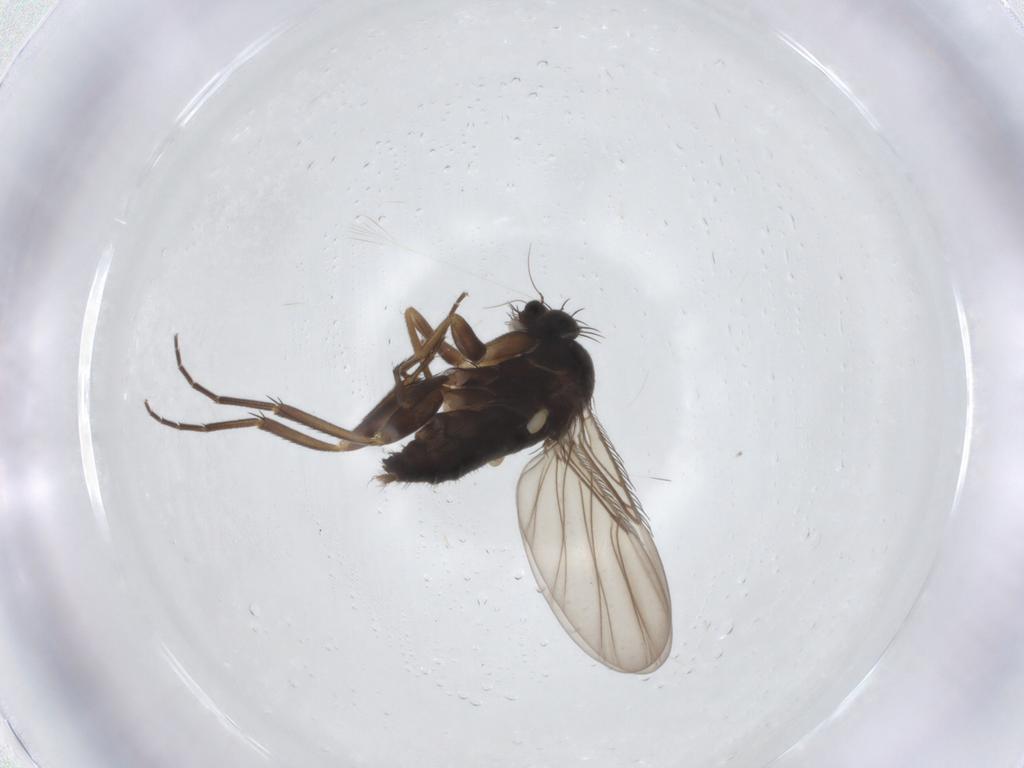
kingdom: Animalia
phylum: Arthropoda
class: Insecta
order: Diptera
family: Phoridae
